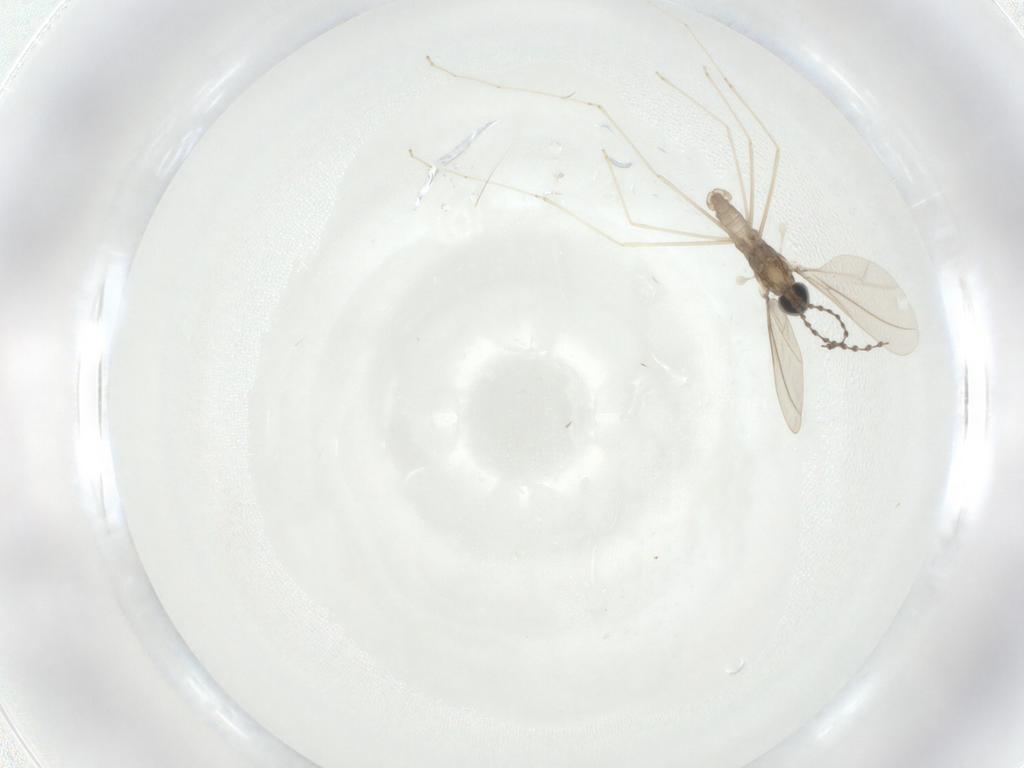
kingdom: Animalia
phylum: Arthropoda
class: Insecta
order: Diptera
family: Cecidomyiidae
